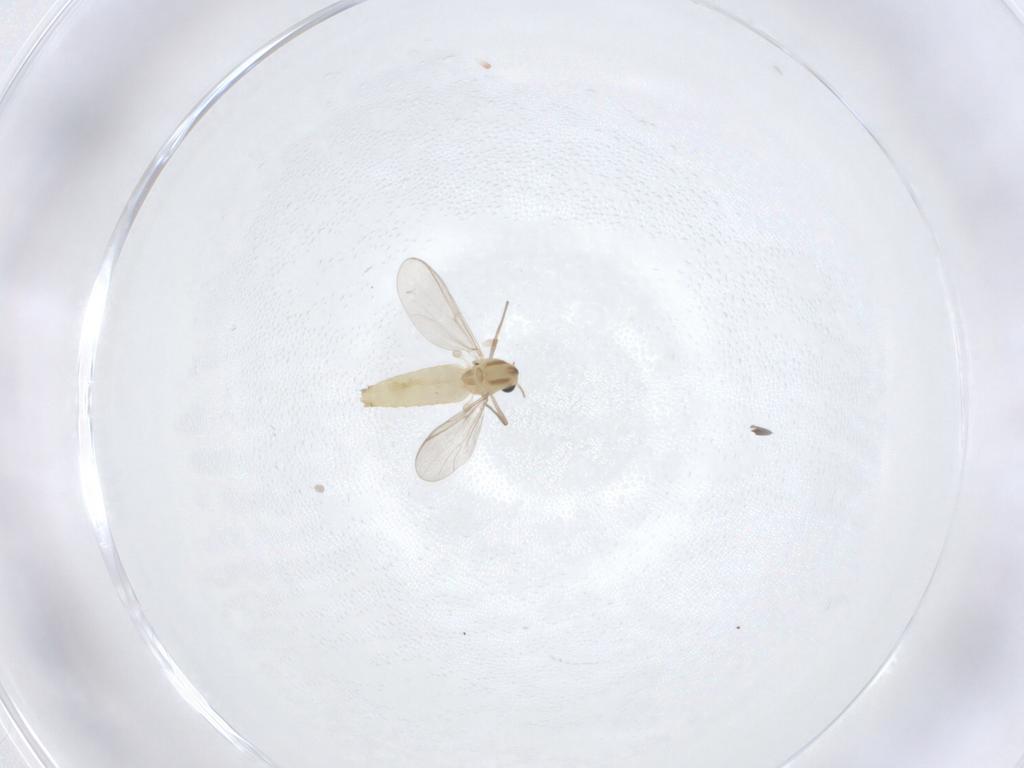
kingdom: Animalia
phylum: Arthropoda
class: Insecta
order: Diptera
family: Chironomidae
